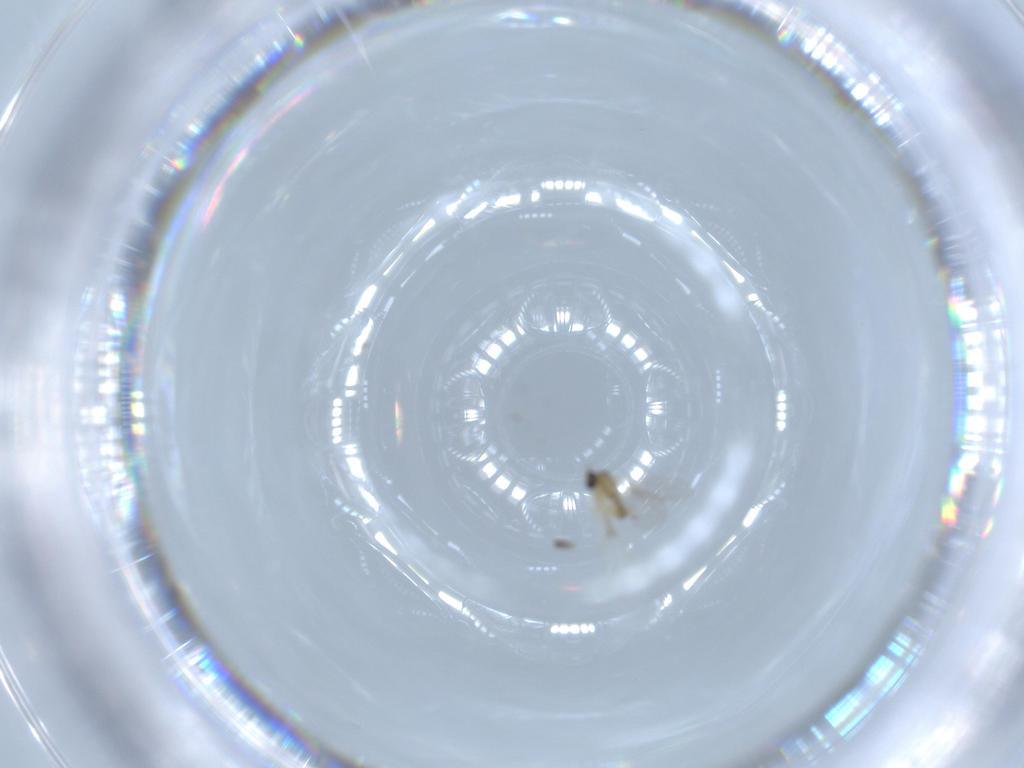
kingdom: Animalia
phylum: Arthropoda
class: Insecta
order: Diptera
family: Cecidomyiidae
